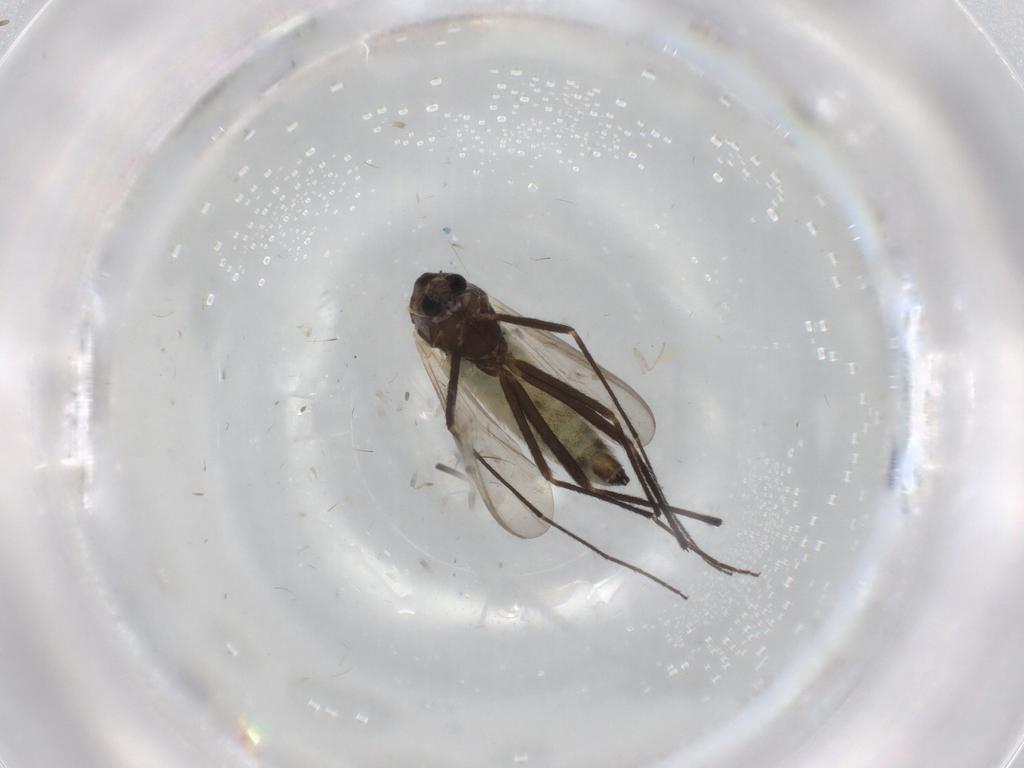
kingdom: Animalia
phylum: Arthropoda
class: Insecta
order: Diptera
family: Chironomidae
